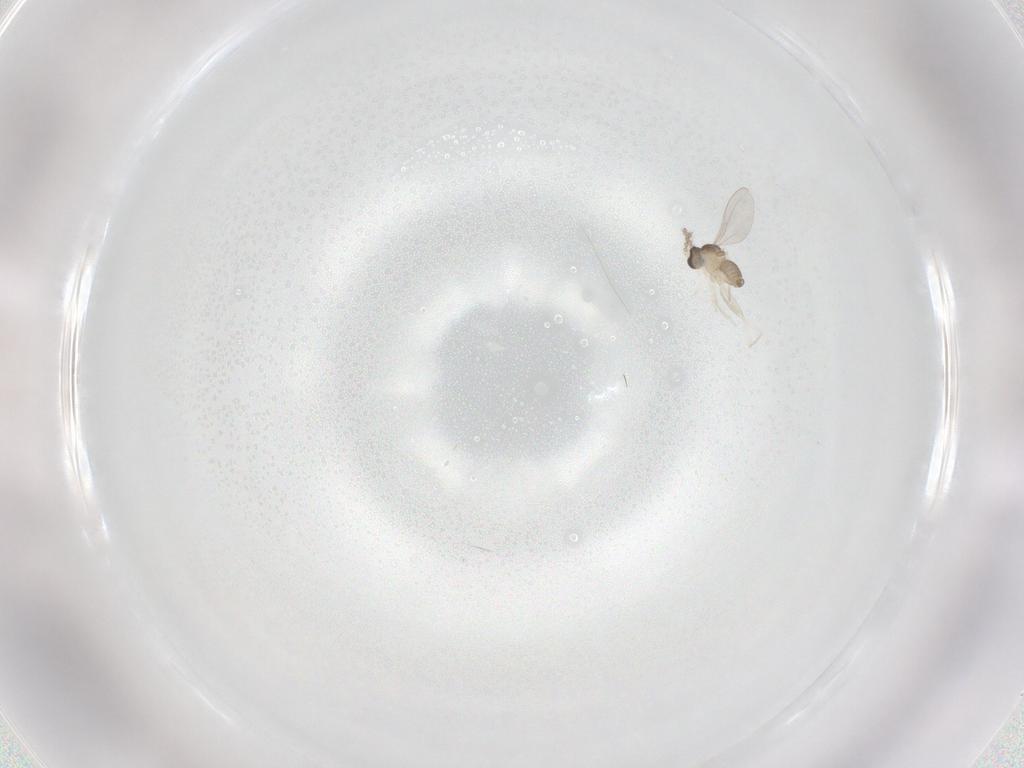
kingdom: Animalia
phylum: Arthropoda
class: Insecta
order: Diptera
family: Cecidomyiidae
